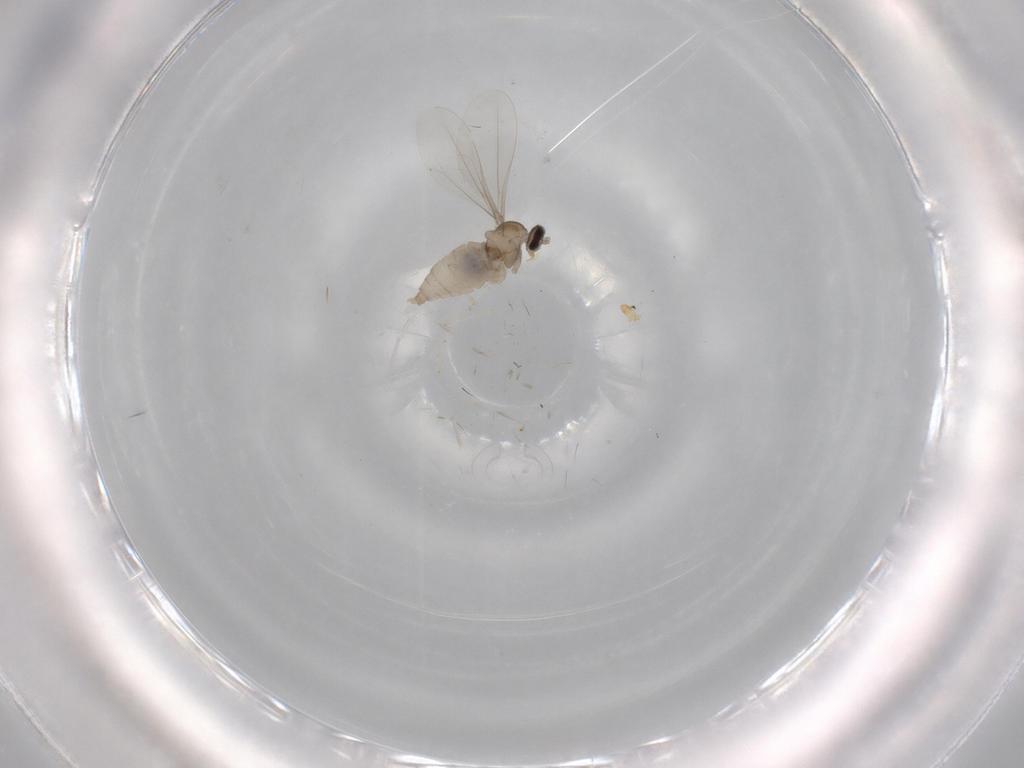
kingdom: Animalia
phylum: Arthropoda
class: Insecta
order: Diptera
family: Cecidomyiidae
